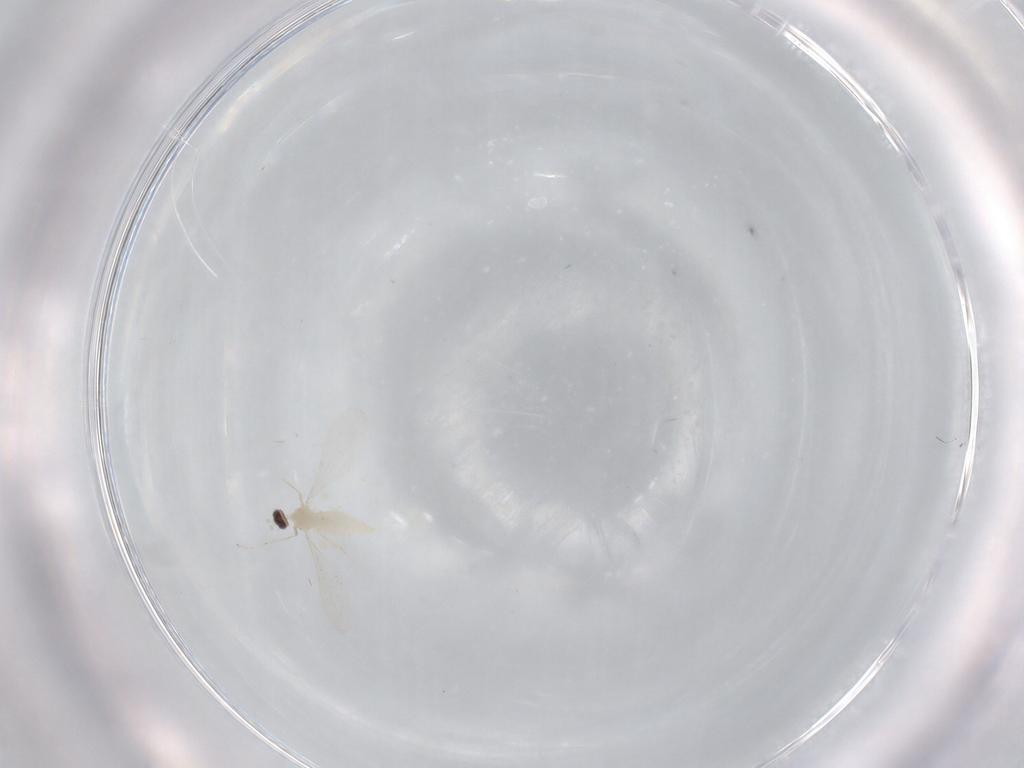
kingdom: Animalia
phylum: Arthropoda
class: Insecta
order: Diptera
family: Cecidomyiidae
